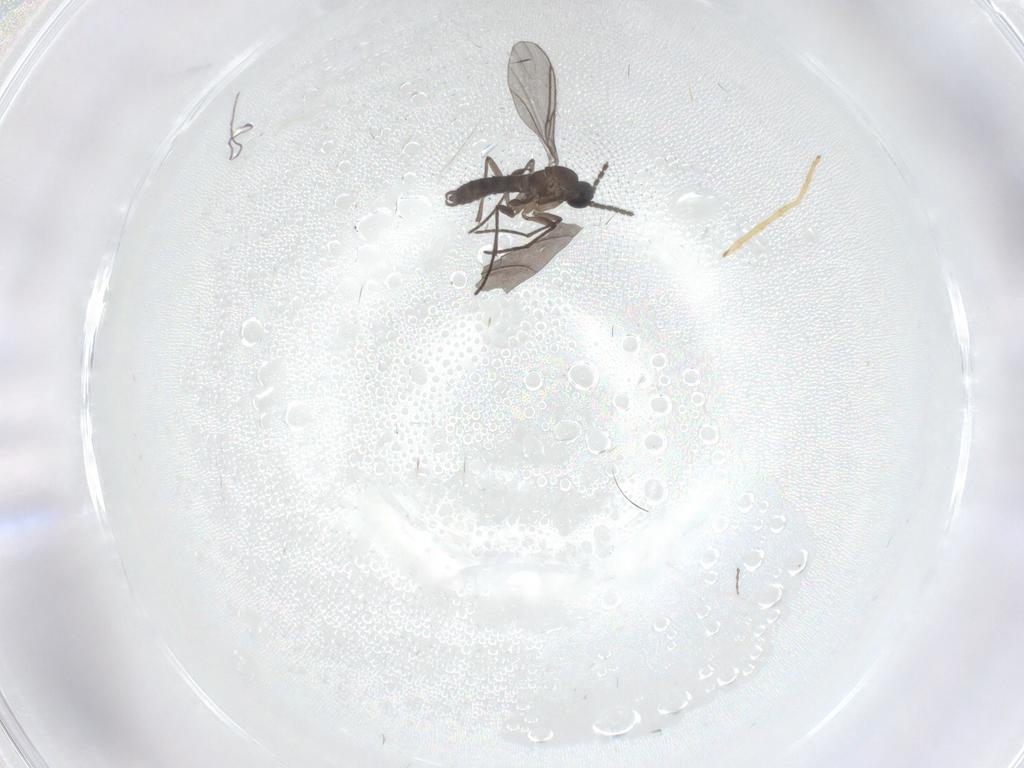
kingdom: Animalia
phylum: Arthropoda
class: Insecta
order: Diptera
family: Chironomidae
